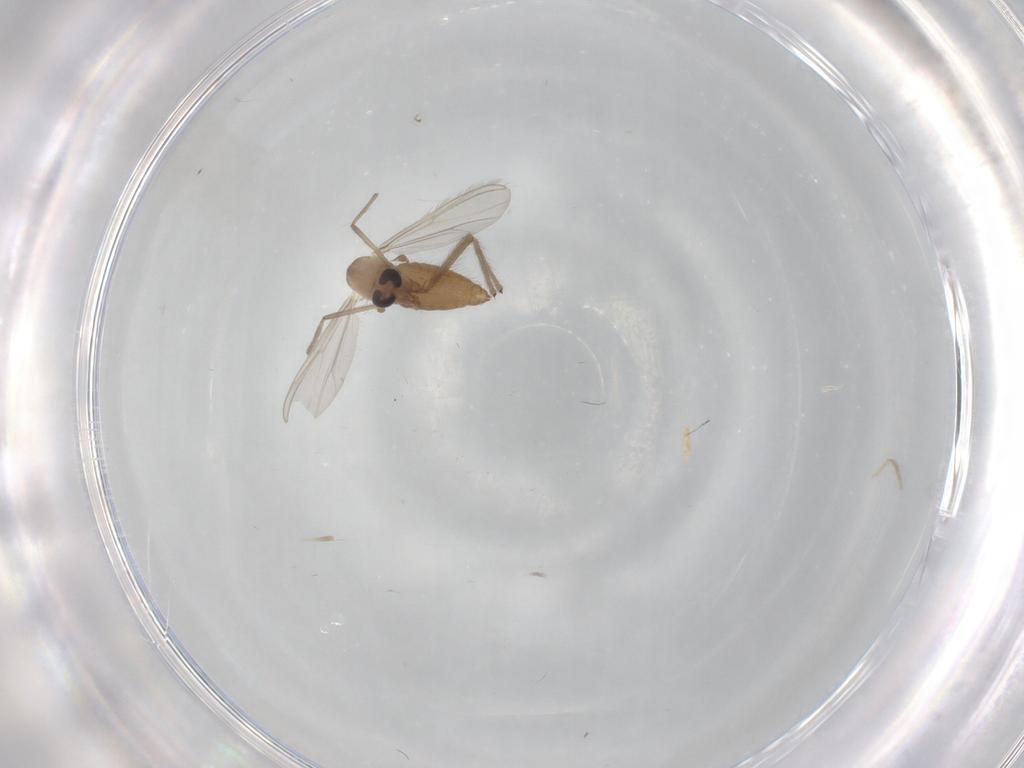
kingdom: Animalia
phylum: Arthropoda
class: Insecta
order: Diptera
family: Chironomidae
